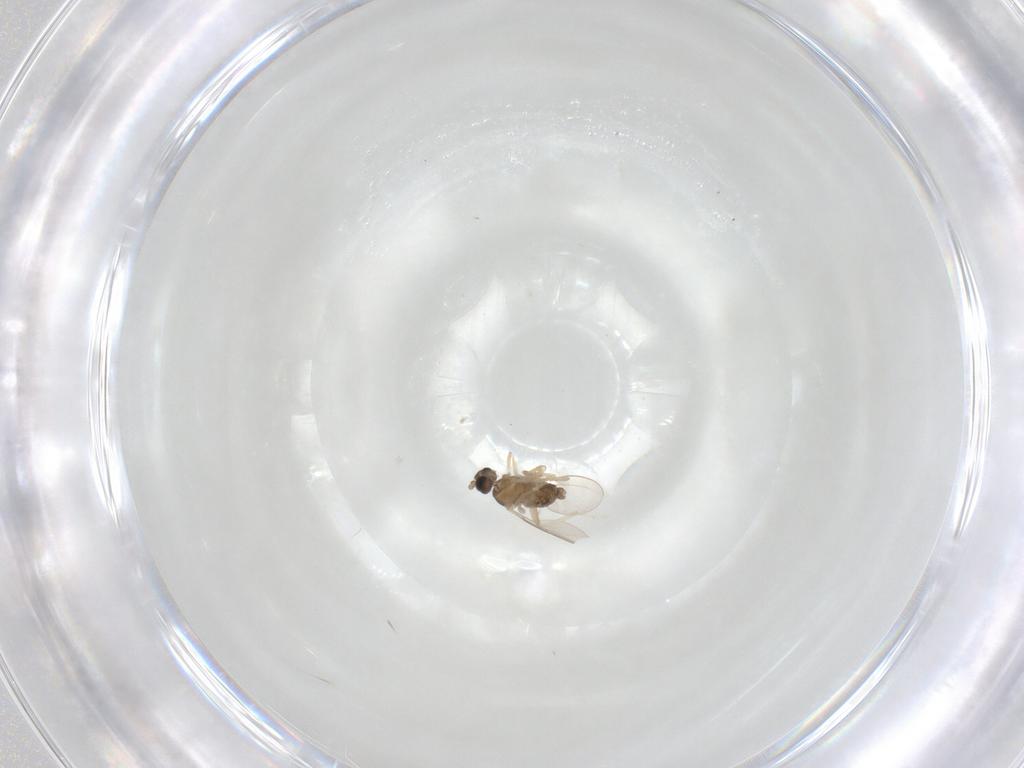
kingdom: Animalia
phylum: Arthropoda
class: Insecta
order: Diptera
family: Cecidomyiidae
